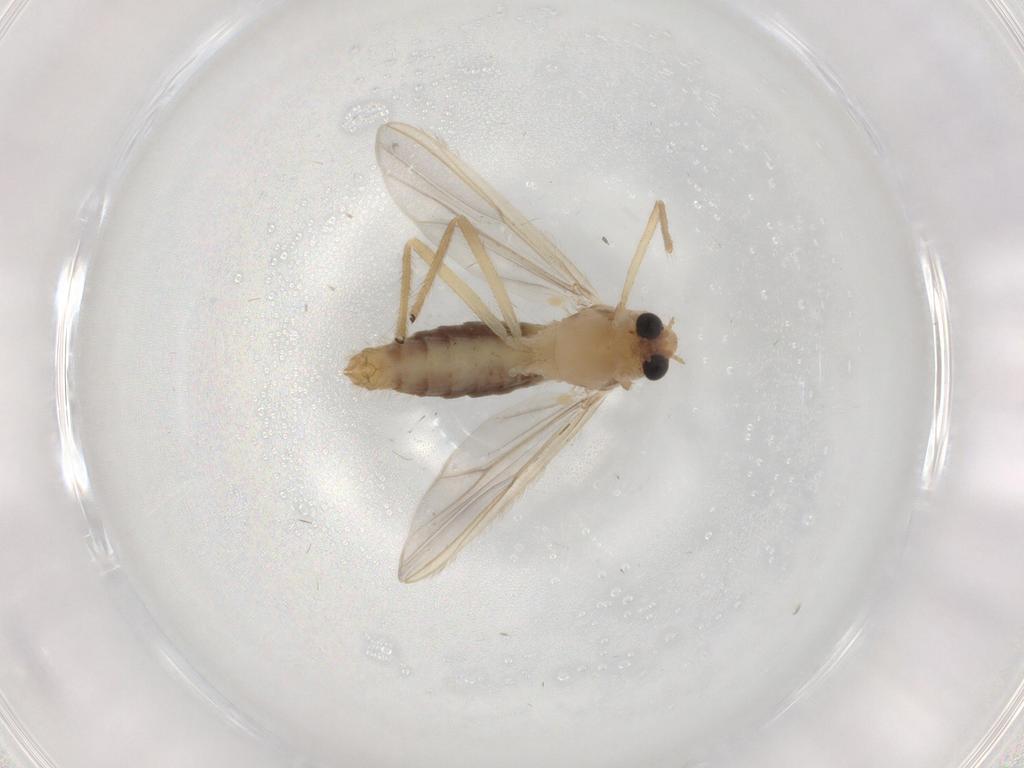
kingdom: Animalia
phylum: Arthropoda
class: Insecta
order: Diptera
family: Chironomidae
